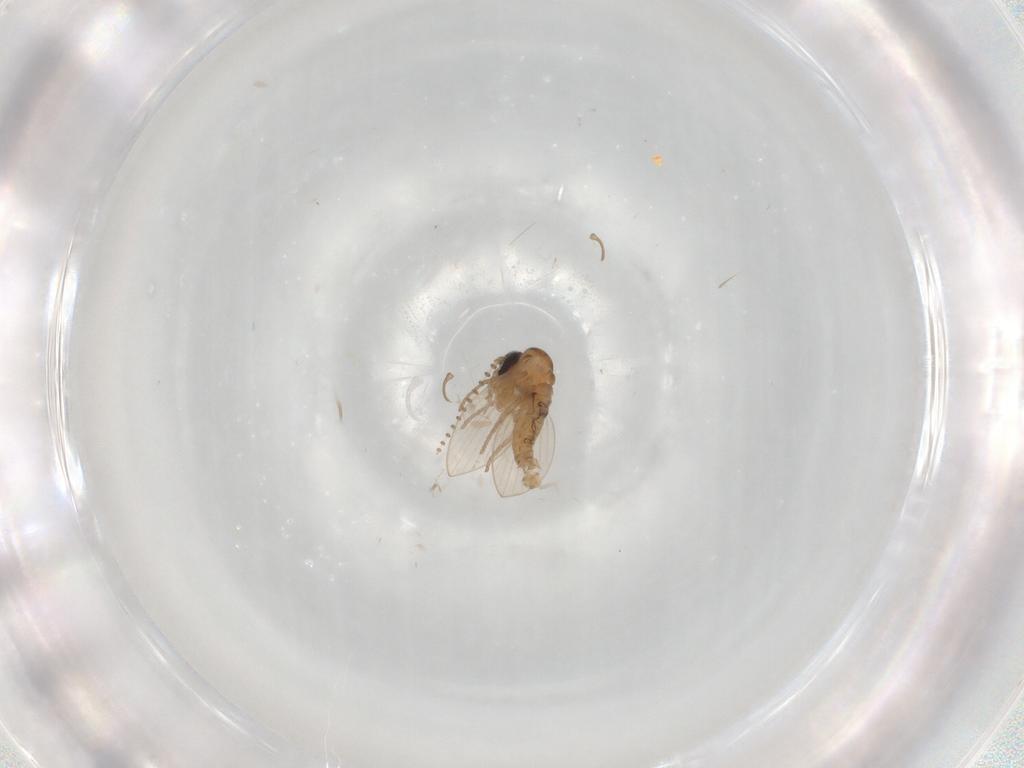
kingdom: Animalia
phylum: Arthropoda
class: Insecta
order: Diptera
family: Psychodidae
